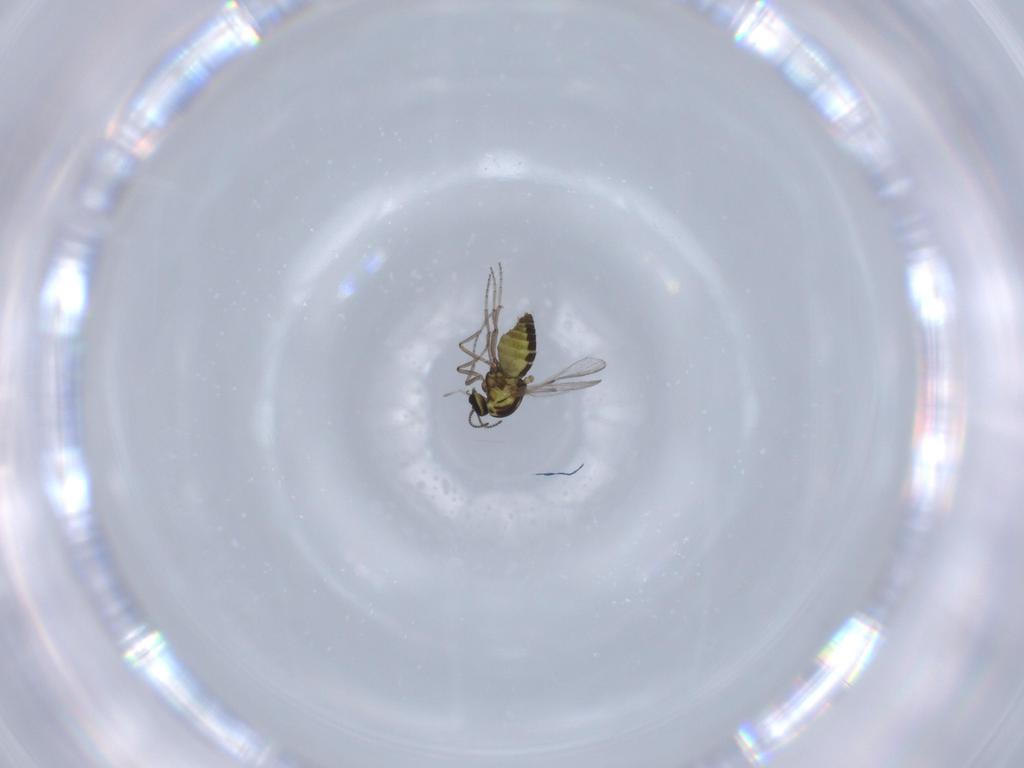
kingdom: Animalia
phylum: Arthropoda
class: Insecta
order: Diptera
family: Ceratopogonidae
